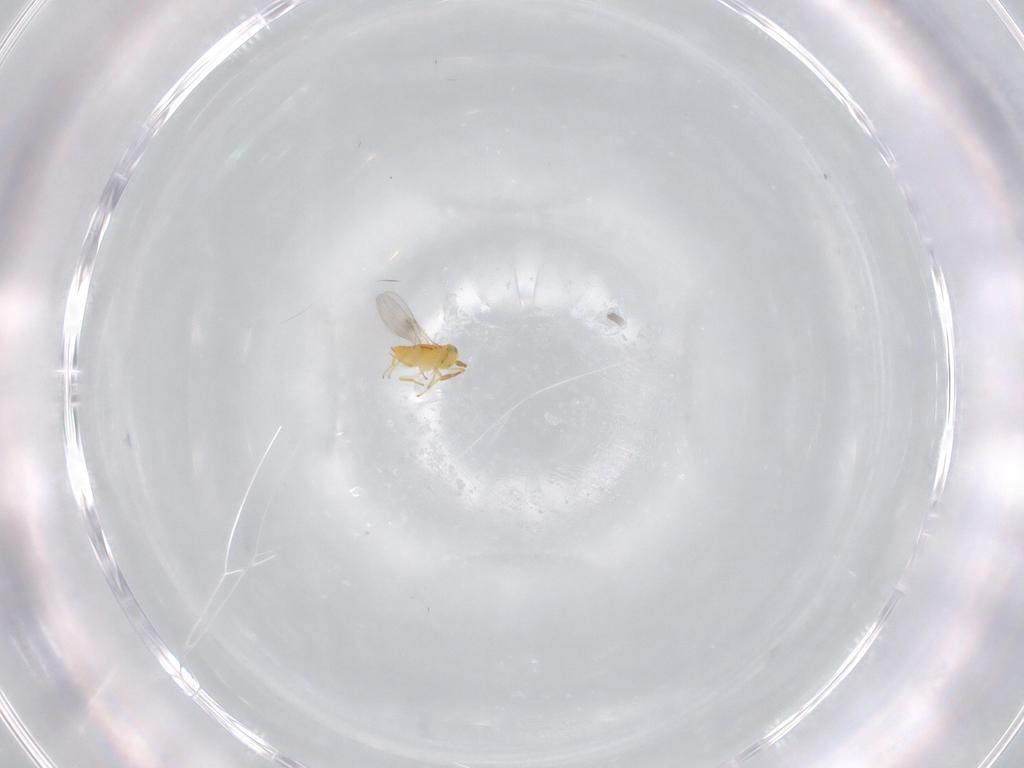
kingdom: Animalia
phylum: Arthropoda
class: Insecta
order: Hymenoptera
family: Encyrtidae
